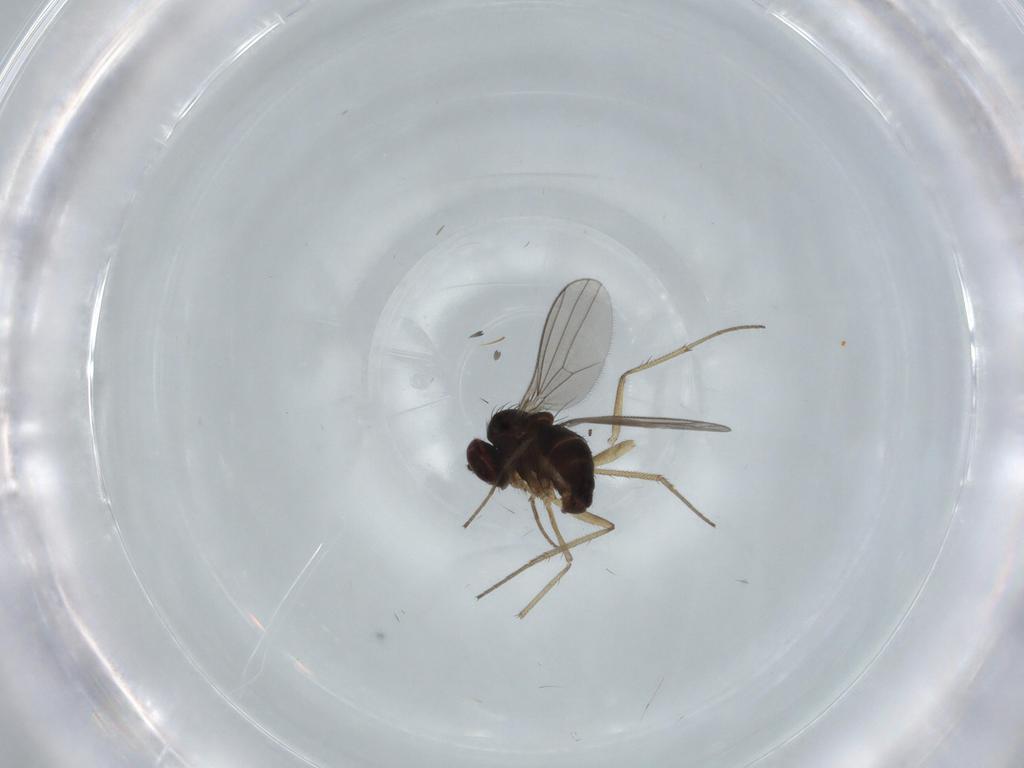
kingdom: Animalia
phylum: Arthropoda
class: Insecta
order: Diptera
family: Dolichopodidae
